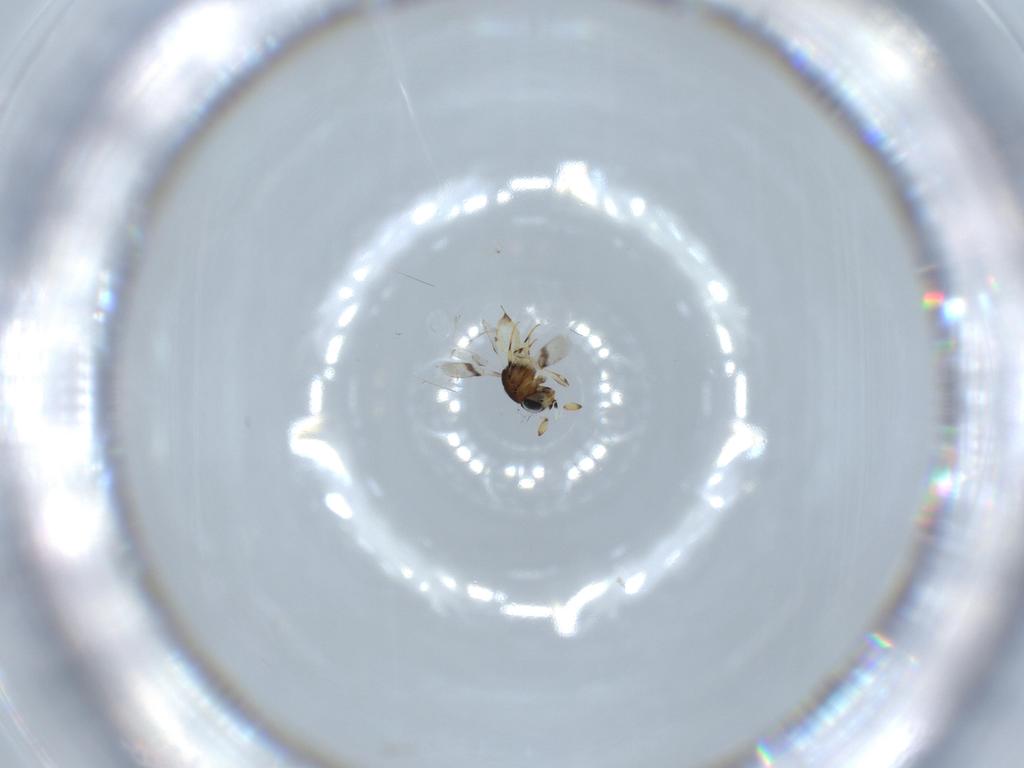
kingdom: Animalia
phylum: Arthropoda
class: Insecta
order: Hymenoptera
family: Scelionidae
